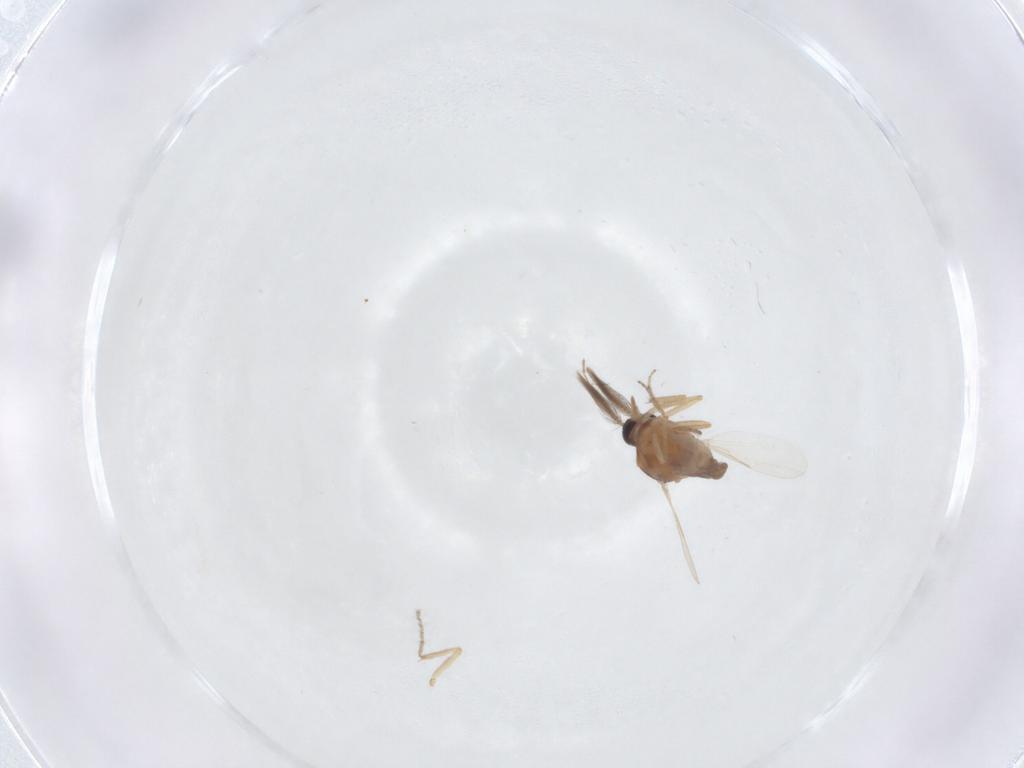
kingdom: Animalia
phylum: Arthropoda
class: Insecta
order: Diptera
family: Ceratopogonidae
